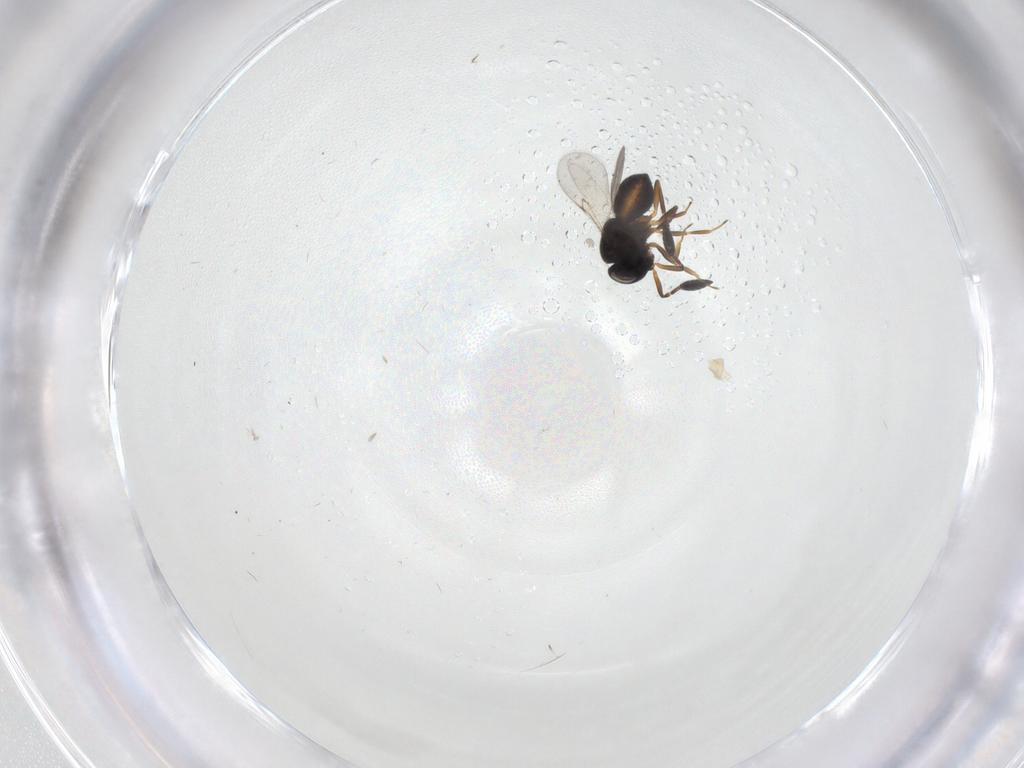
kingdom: Animalia
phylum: Arthropoda
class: Insecta
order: Hymenoptera
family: Scelionidae
